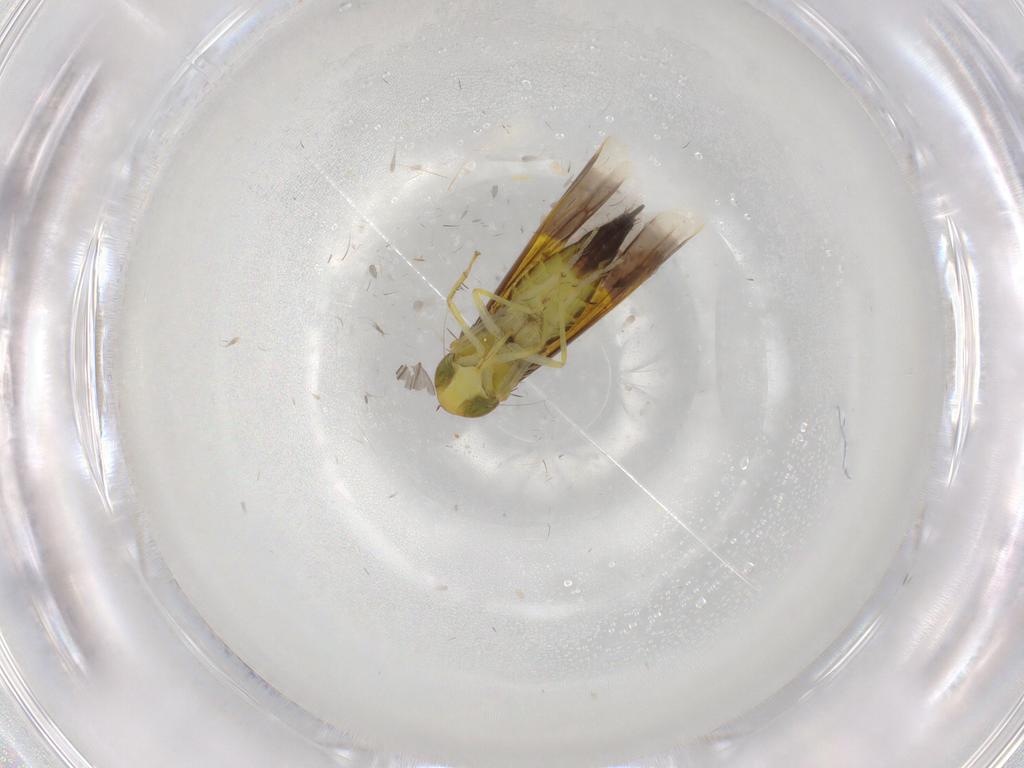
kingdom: Animalia
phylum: Arthropoda
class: Insecta
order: Hemiptera
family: Cicadellidae
